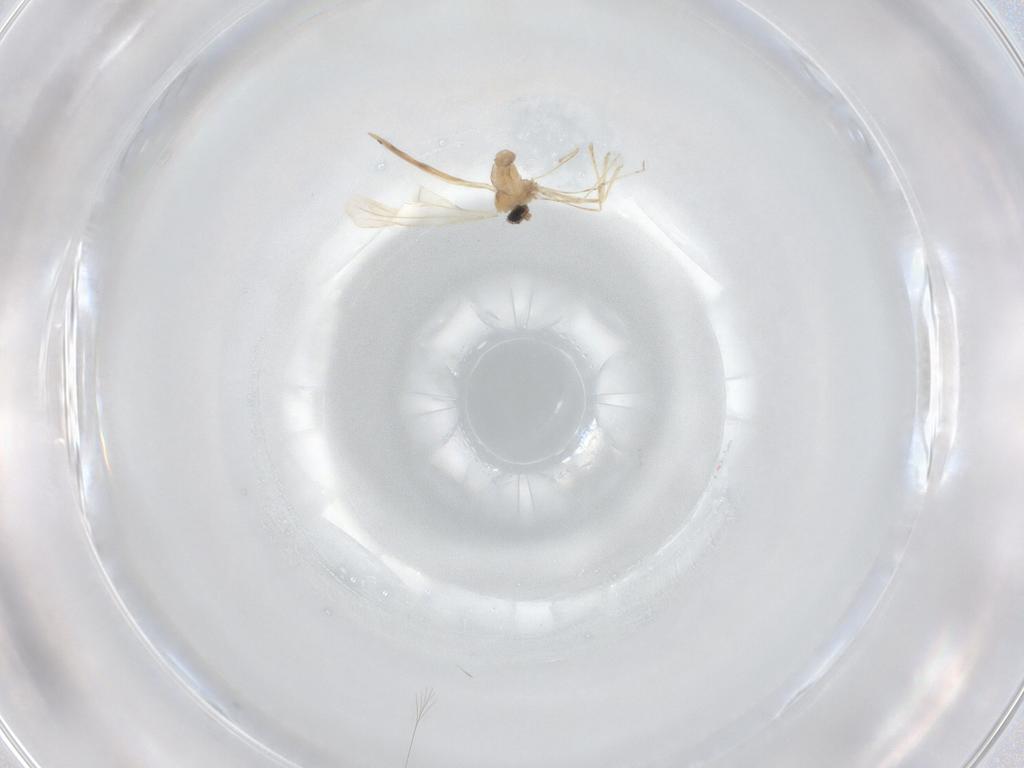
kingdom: Animalia
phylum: Arthropoda
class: Insecta
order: Diptera
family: Cecidomyiidae
